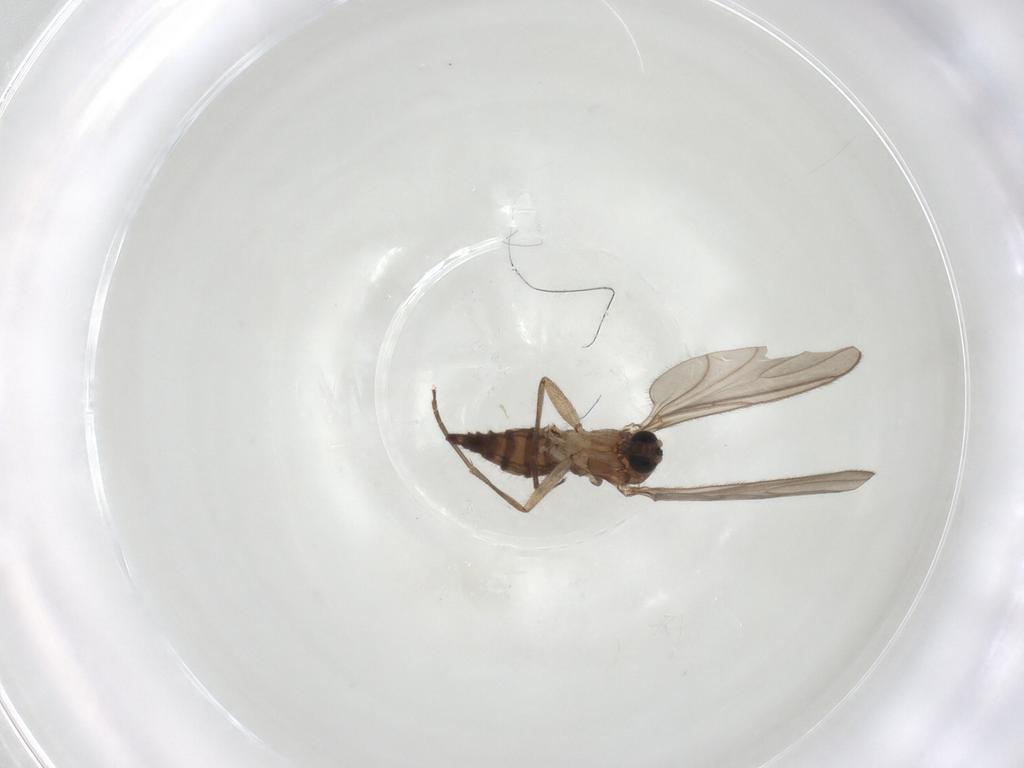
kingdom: Animalia
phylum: Arthropoda
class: Insecta
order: Diptera
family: Sciaridae
